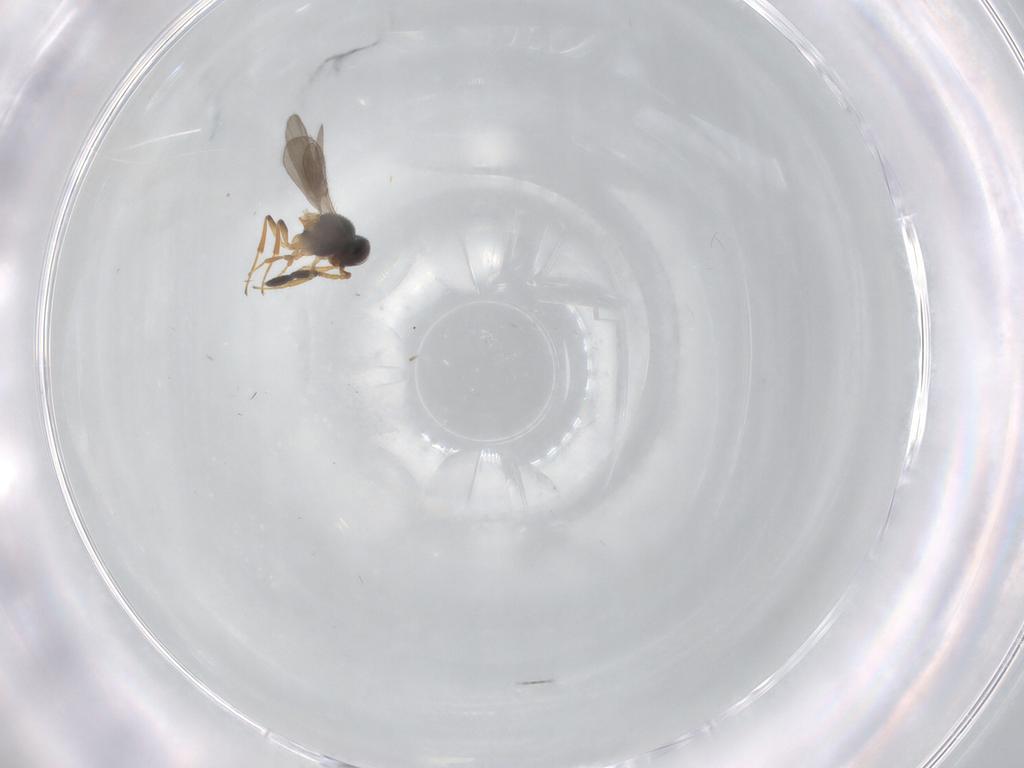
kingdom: Animalia
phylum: Arthropoda
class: Insecta
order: Hymenoptera
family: Scelionidae
